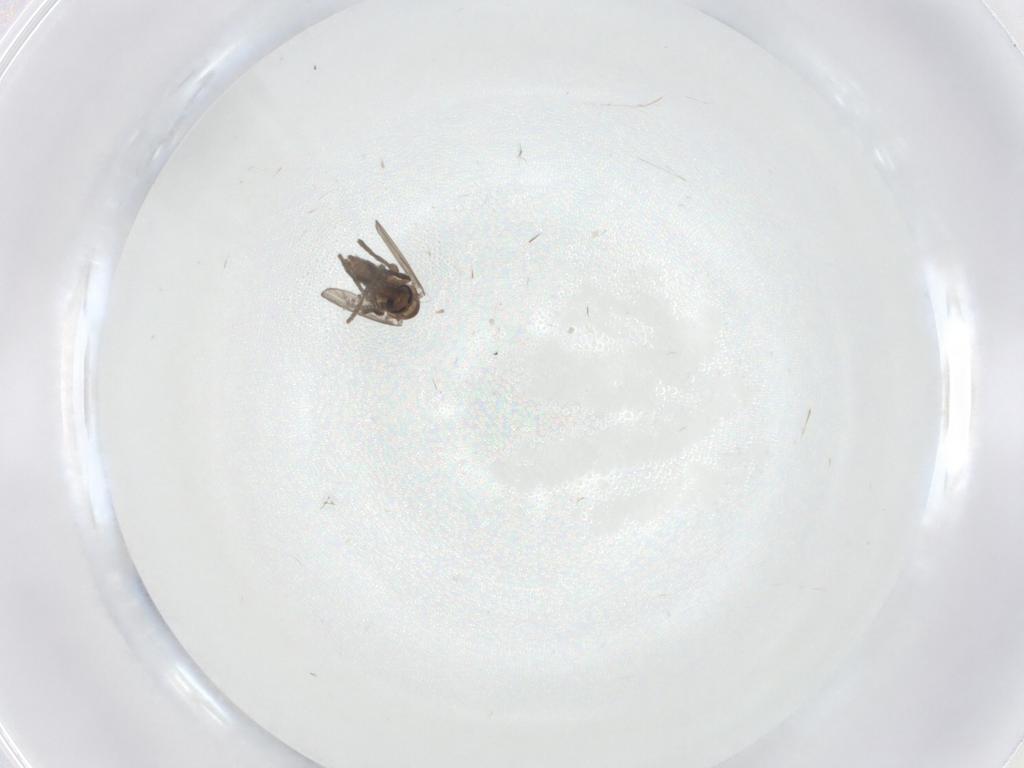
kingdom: Animalia
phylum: Arthropoda
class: Insecta
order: Diptera
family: Psychodidae
